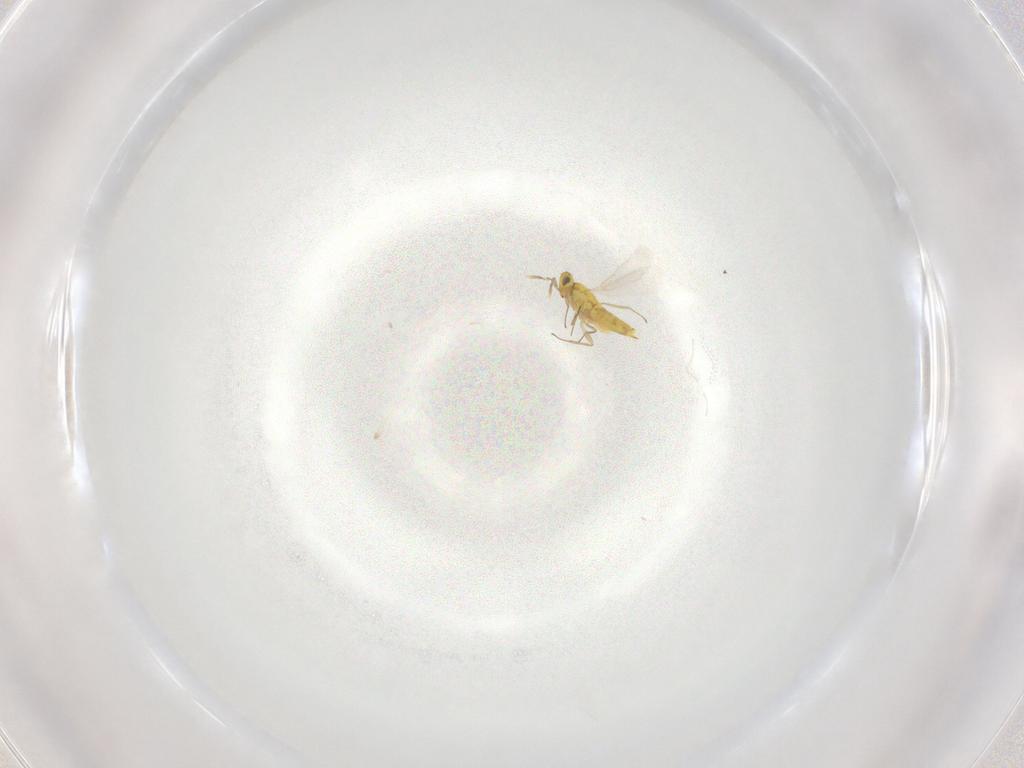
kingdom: Animalia
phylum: Arthropoda
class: Insecta
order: Hymenoptera
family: Aphelinidae
